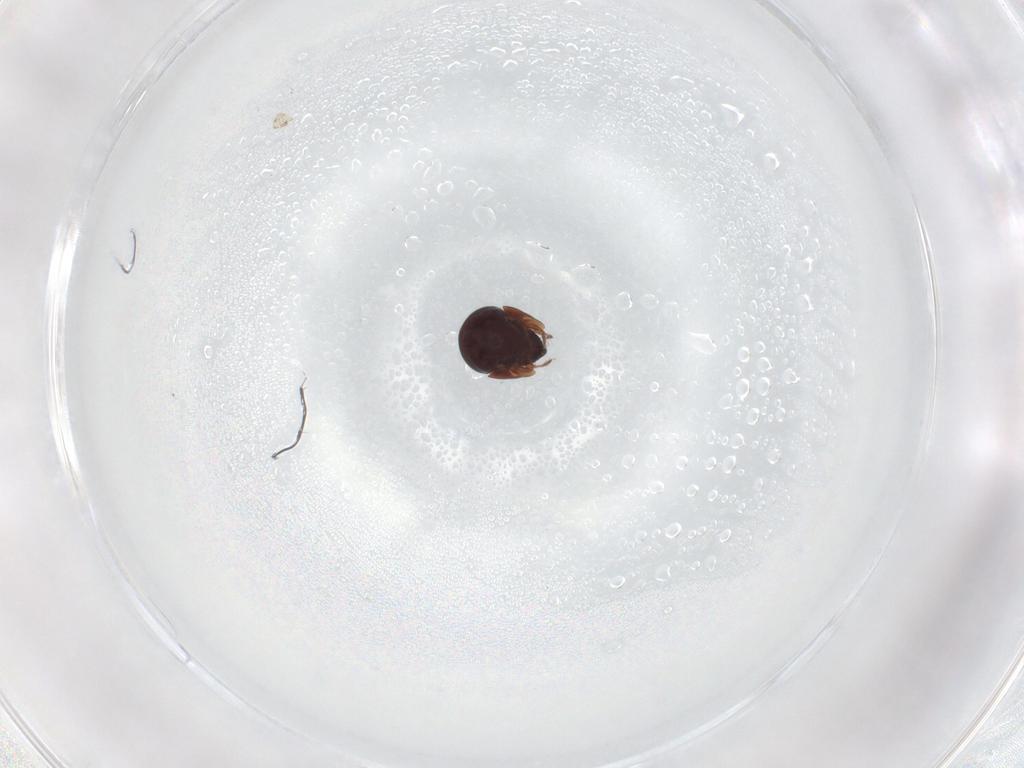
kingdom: Animalia
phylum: Arthropoda
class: Arachnida
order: Sarcoptiformes
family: Galumnidae
